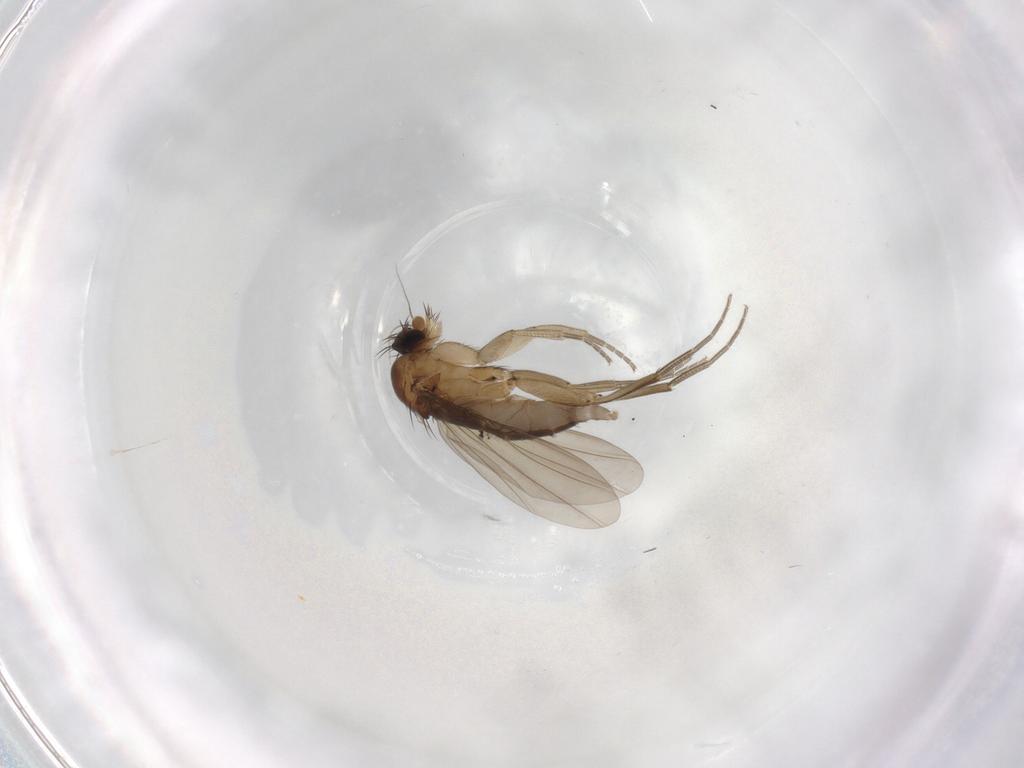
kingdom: Animalia
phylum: Arthropoda
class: Insecta
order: Diptera
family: Phoridae
